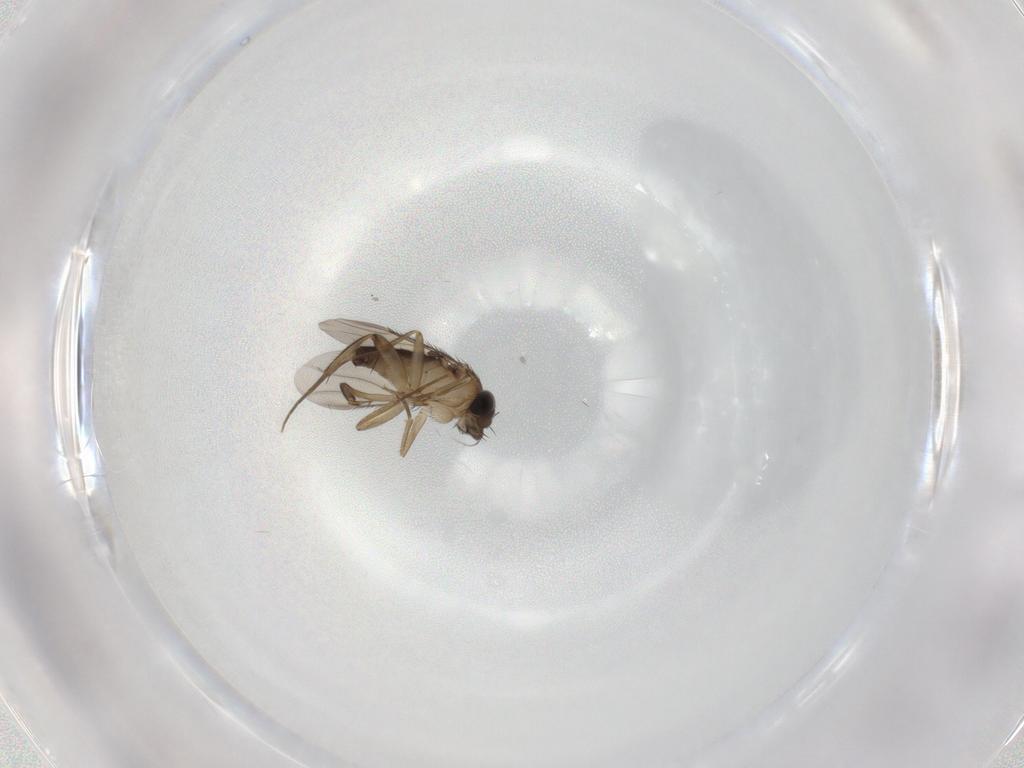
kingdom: Animalia
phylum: Arthropoda
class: Insecta
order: Diptera
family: Phoridae
